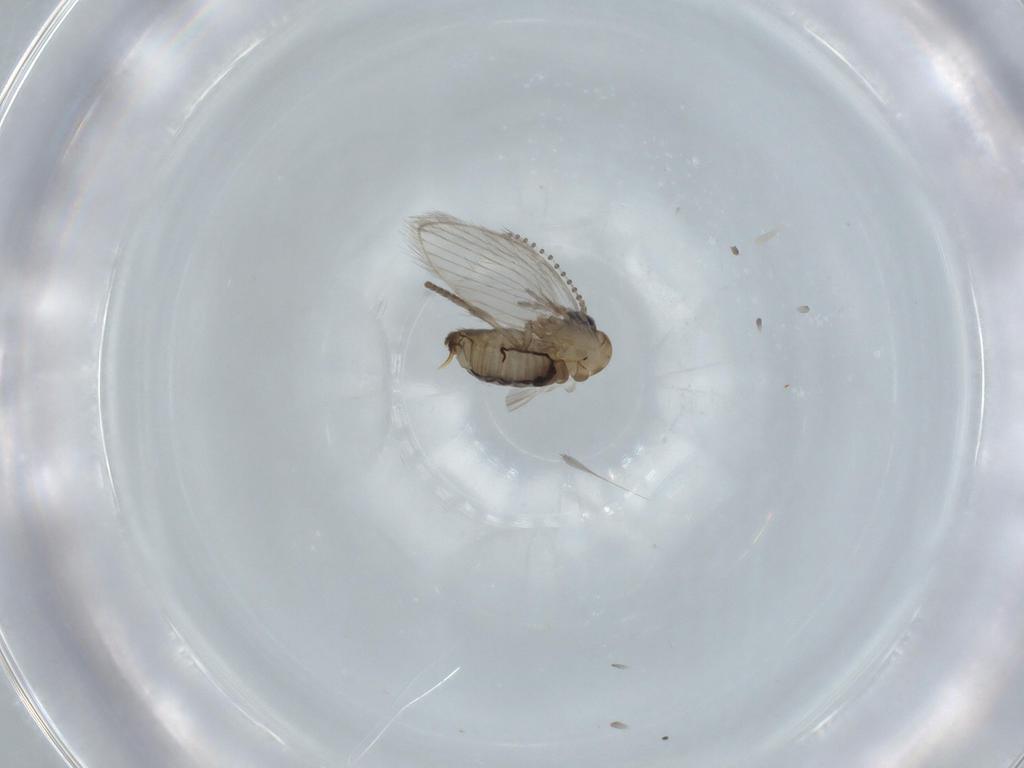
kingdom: Animalia
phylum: Arthropoda
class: Insecta
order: Diptera
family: Psychodidae
